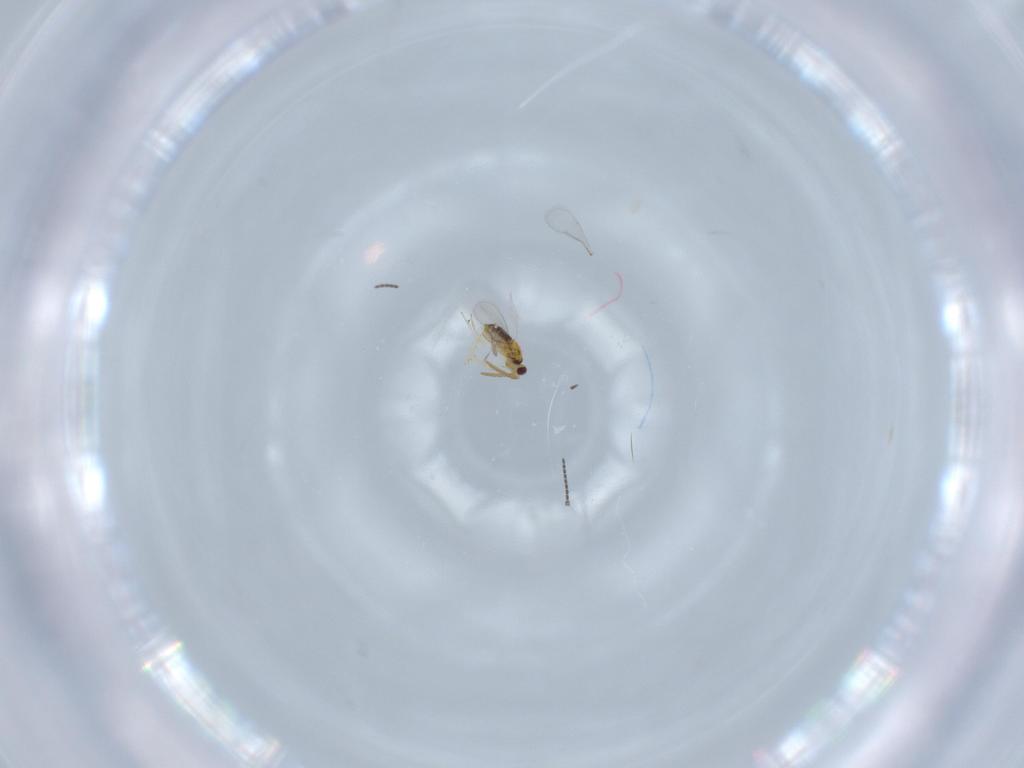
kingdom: Animalia
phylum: Arthropoda
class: Insecta
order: Hymenoptera
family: Aphelinidae
